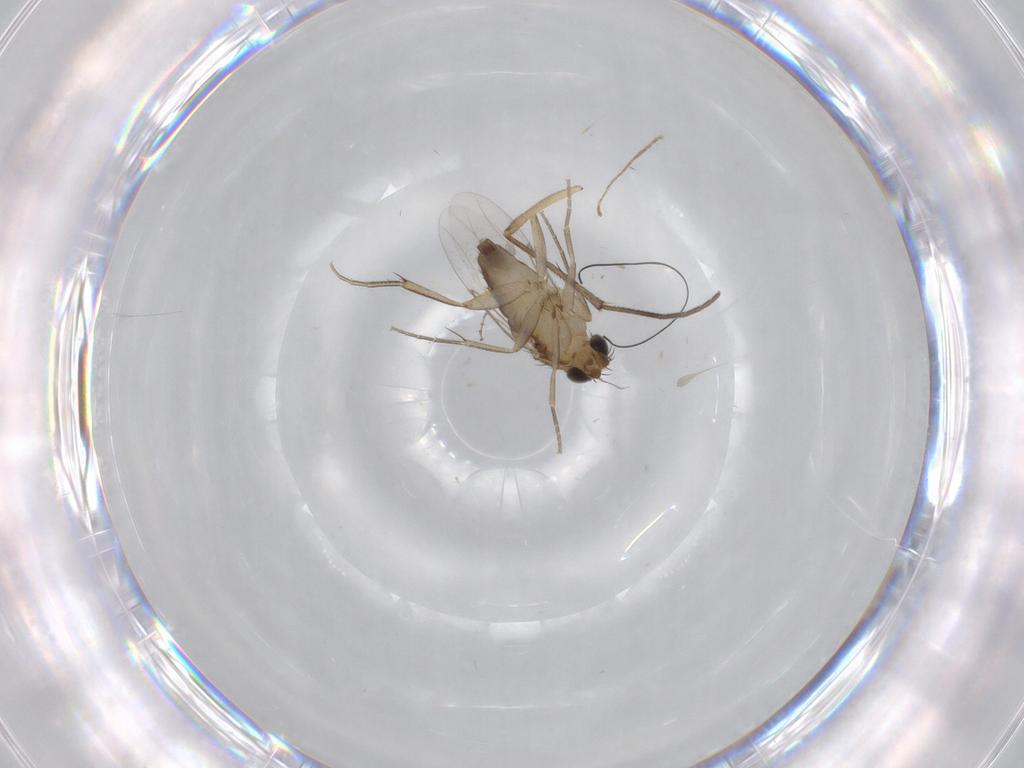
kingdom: Animalia
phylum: Arthropoda
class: Insecta
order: Diptera
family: Sciaridae
